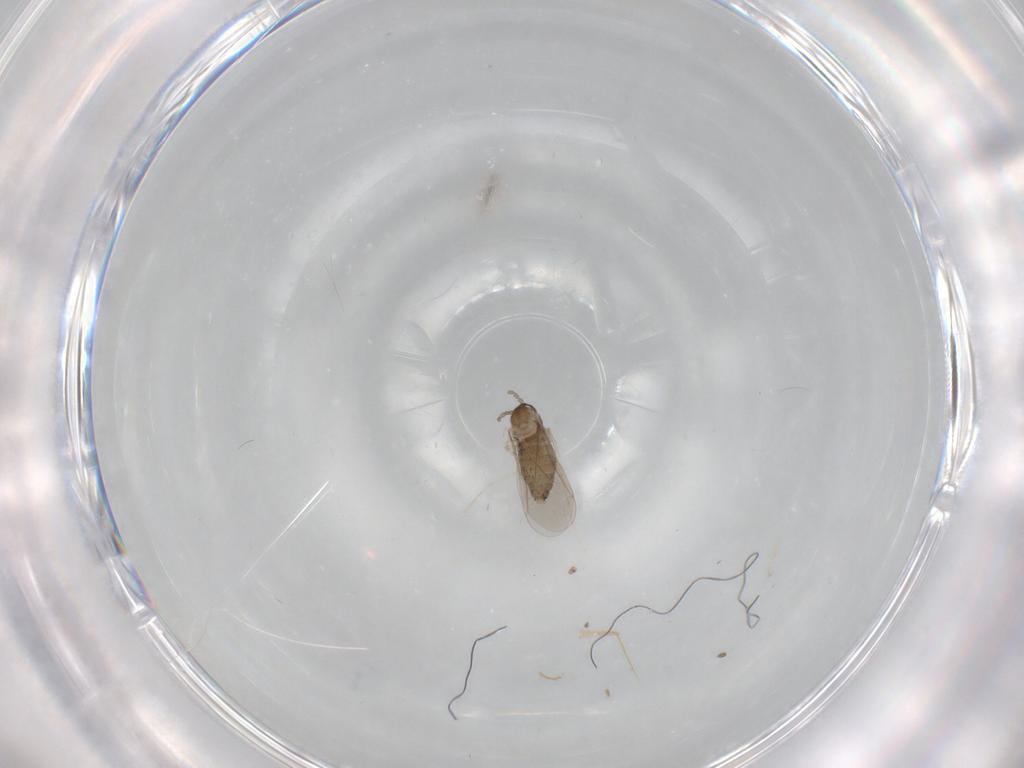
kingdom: Animalia
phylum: Arthropoda
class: Insecta
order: Diptera
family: Psychodidae
